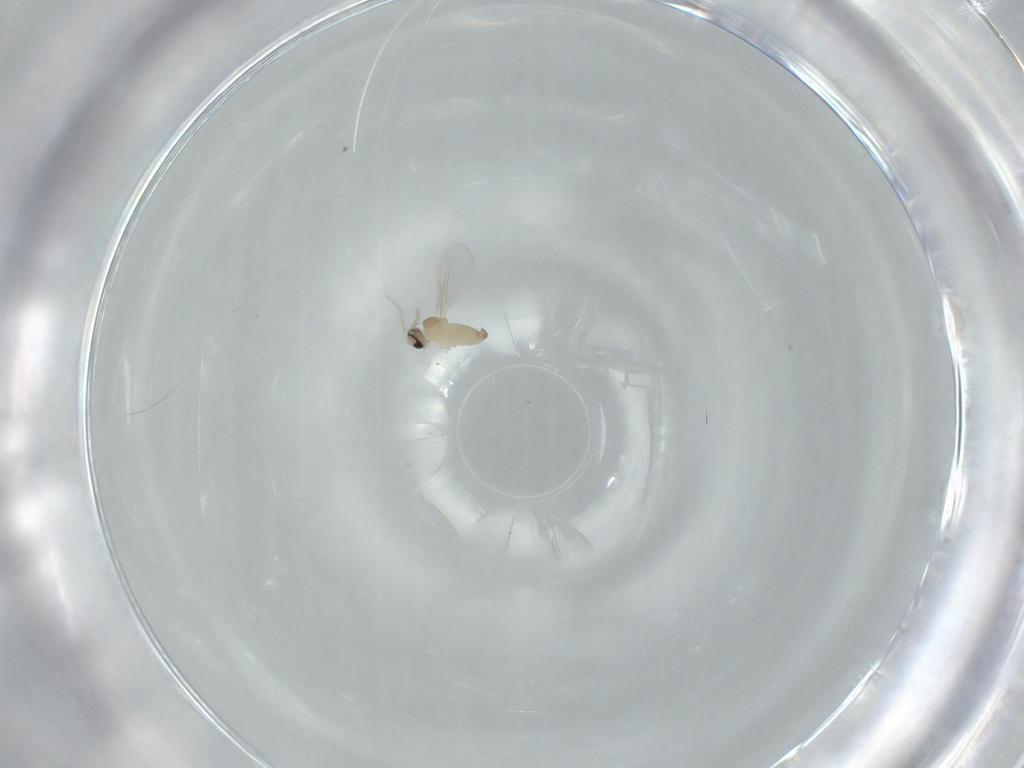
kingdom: Animalia
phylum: Arthropoda
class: Insecta
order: Diptera
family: Cecidomyiidae
